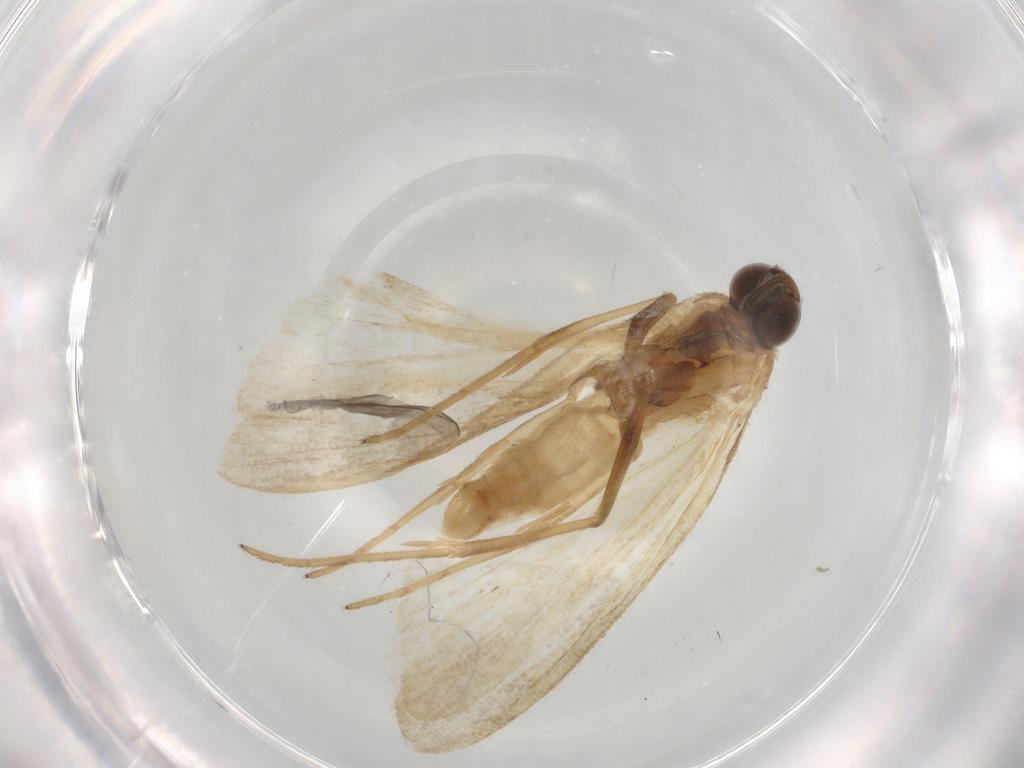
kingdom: Animalia
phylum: Arthropoda
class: Insecta
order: Lepidoptera
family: Noctuidae
